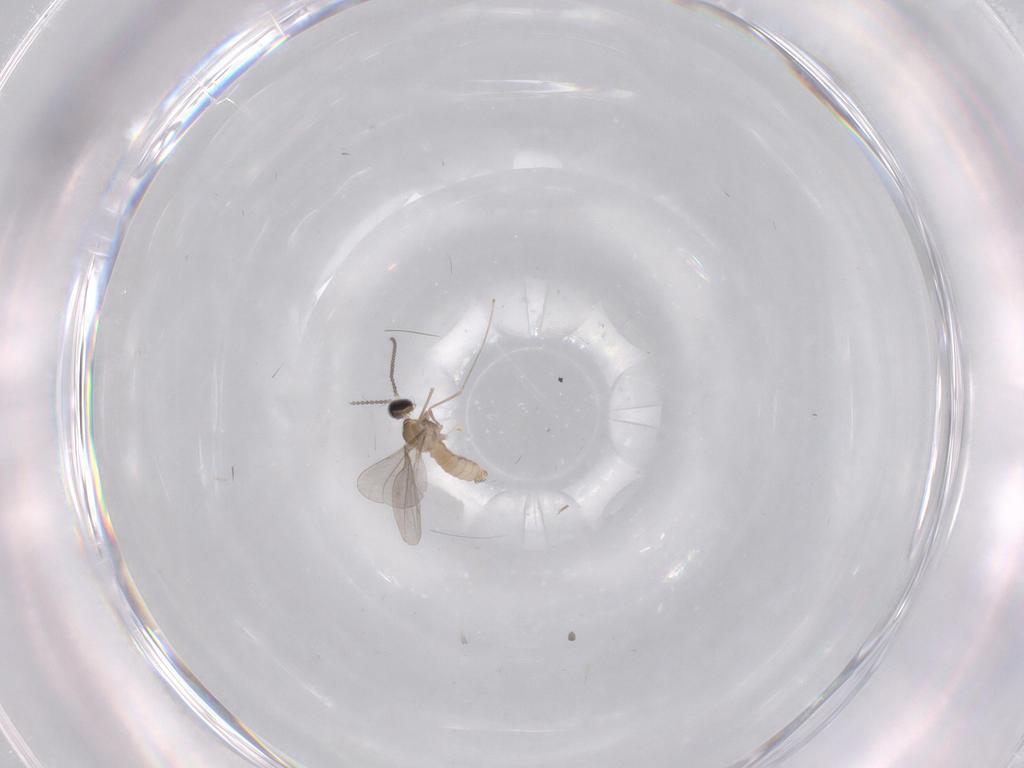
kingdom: Animalia
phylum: Arthropoda
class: Insecta
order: Diptera
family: Cecidomyiidae
